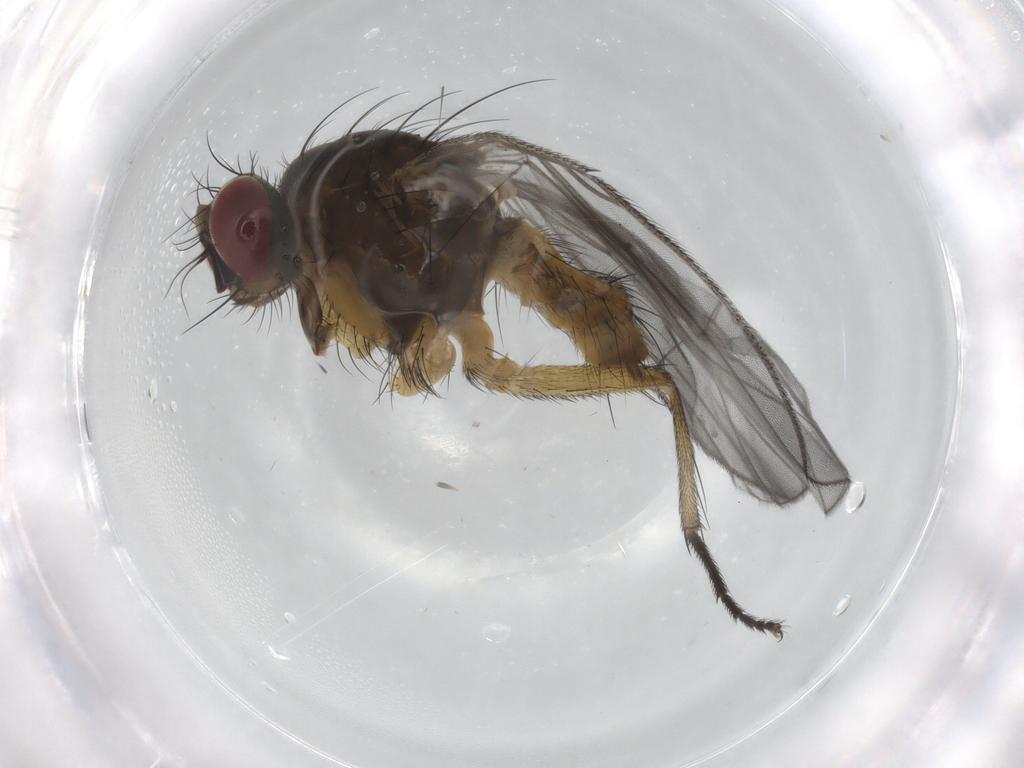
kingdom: Animalia
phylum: Arthropoda
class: Insecta
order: Diptera
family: Muscidae
